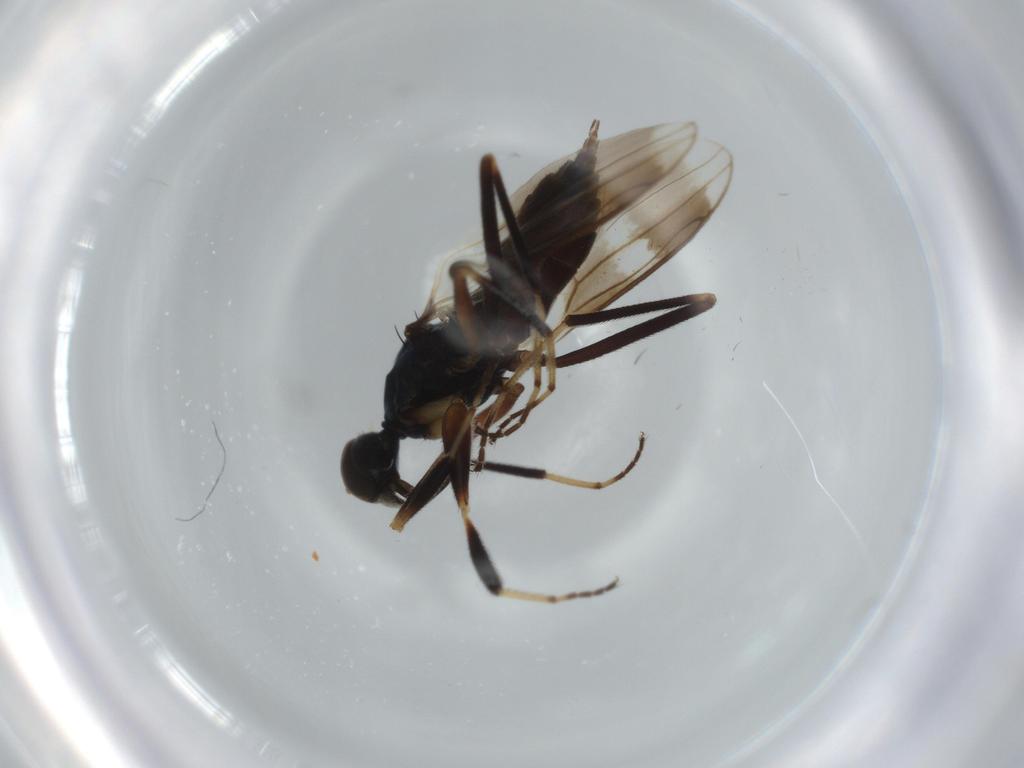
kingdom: Animalia
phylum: Arthropoda
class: Insecta
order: Diptera
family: Hybotidae
